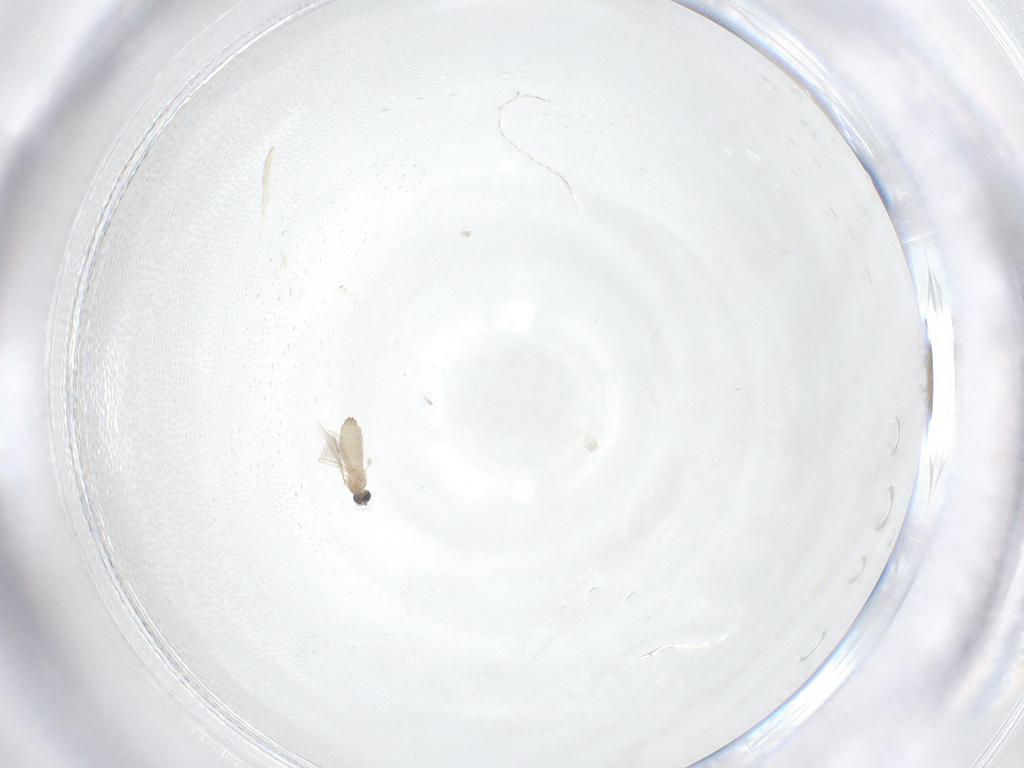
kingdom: Animalia
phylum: Arthropoda
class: Insecta
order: Diptera
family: Cecidomyiidae
